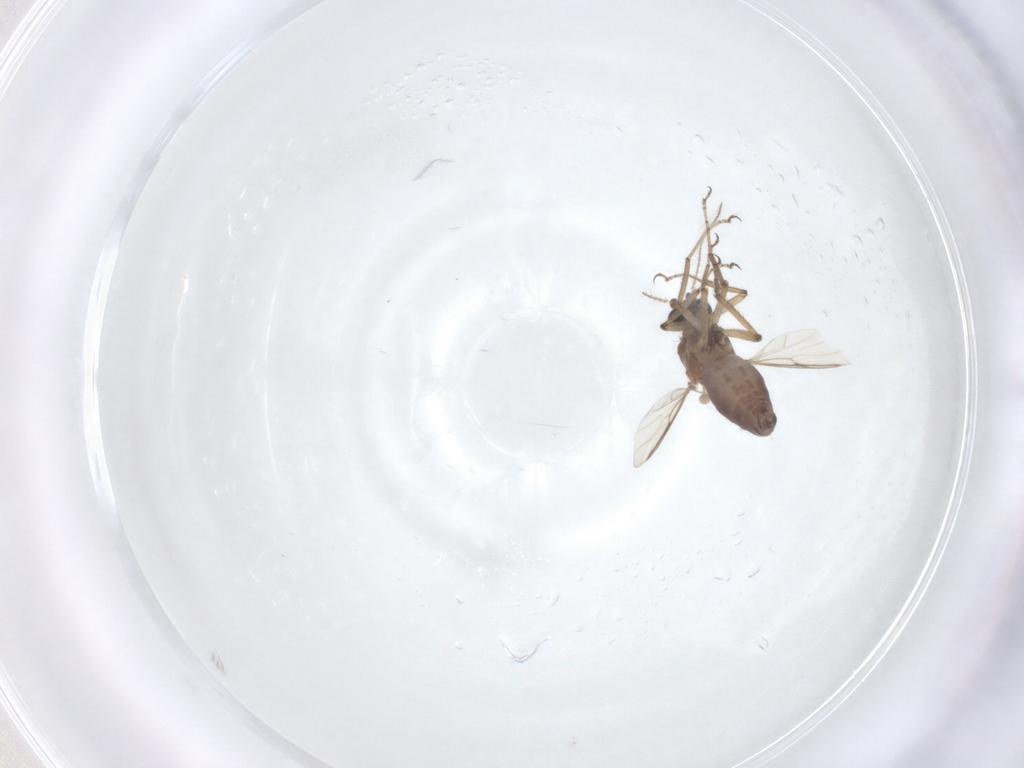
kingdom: Animalia
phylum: Arthropoda
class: Insecta
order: Diptera
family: Ceratopogonidae
